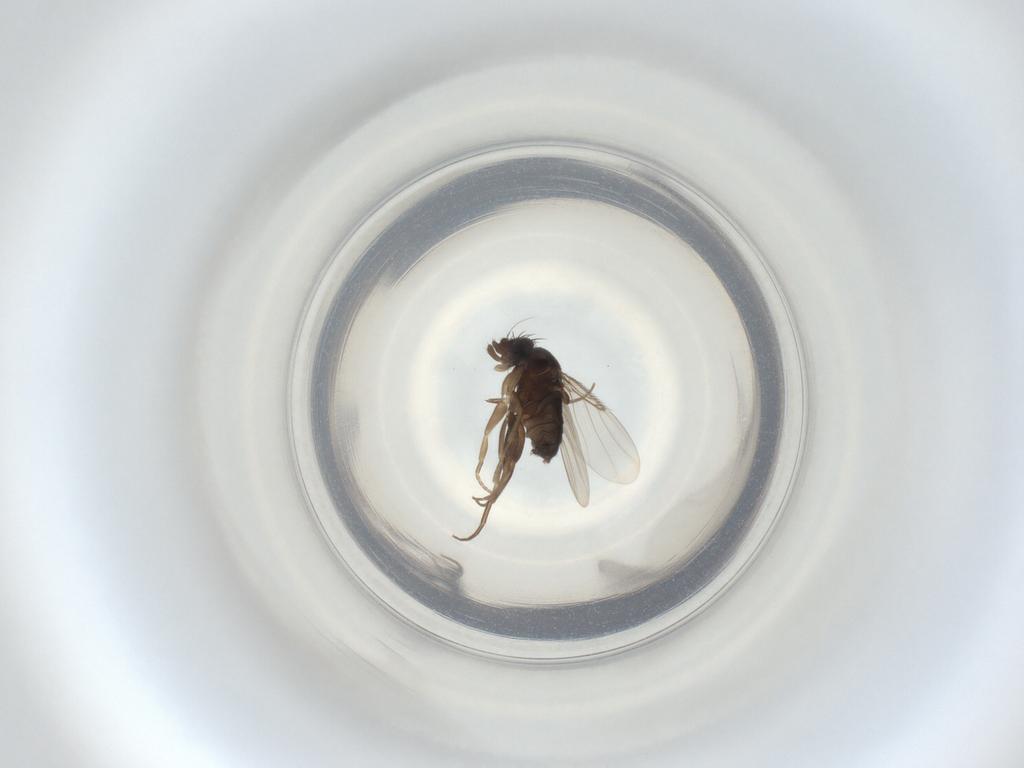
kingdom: Animalia
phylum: Arthropoda
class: Insecta
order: Diptera
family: Phoridae
